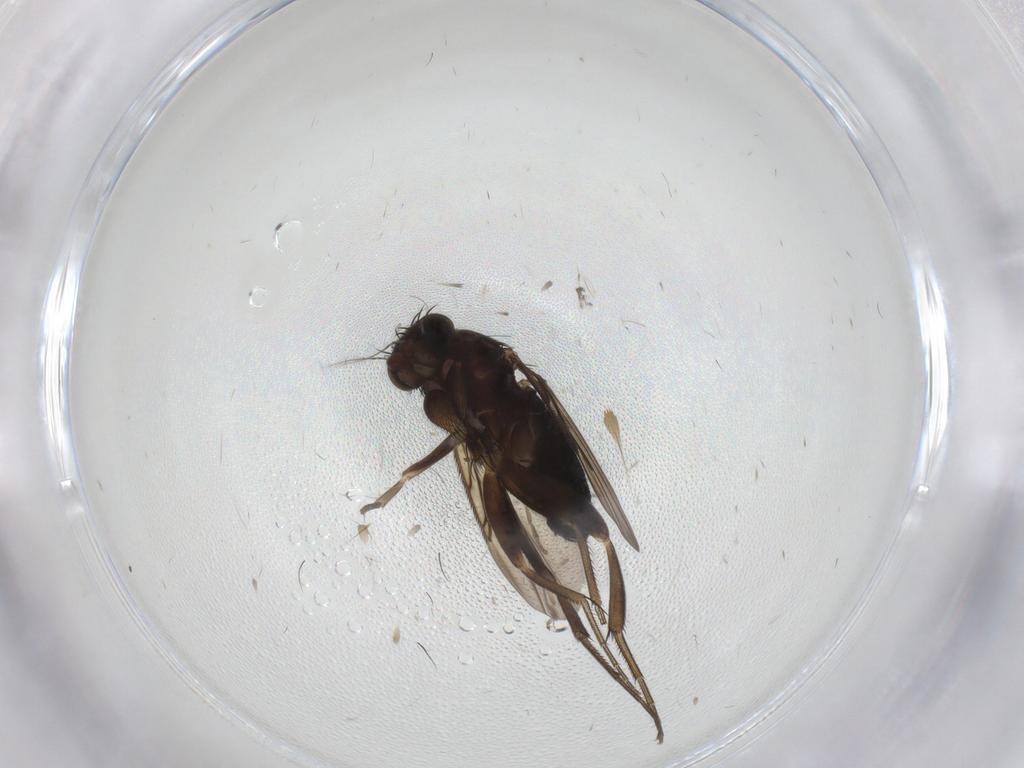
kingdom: Animalia
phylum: Arthropoda
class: Insecta
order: Diptera
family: Phoridae
